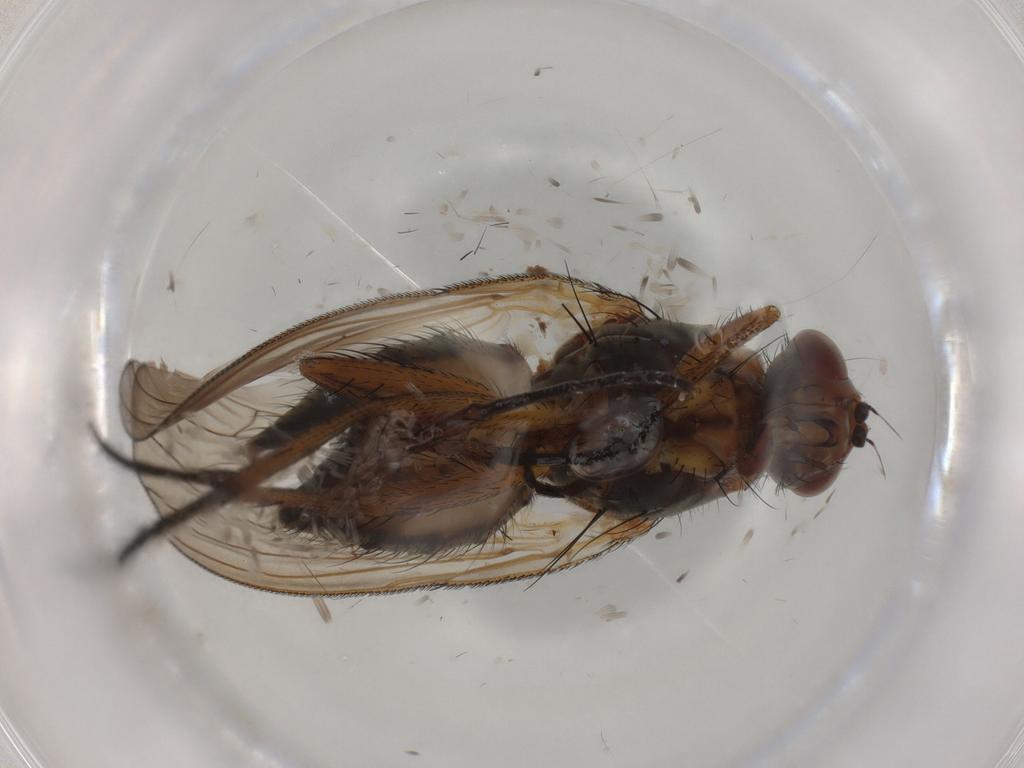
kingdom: Animalia
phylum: Arthropoda
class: Insecta
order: Diptera
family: Anthomyiidae
